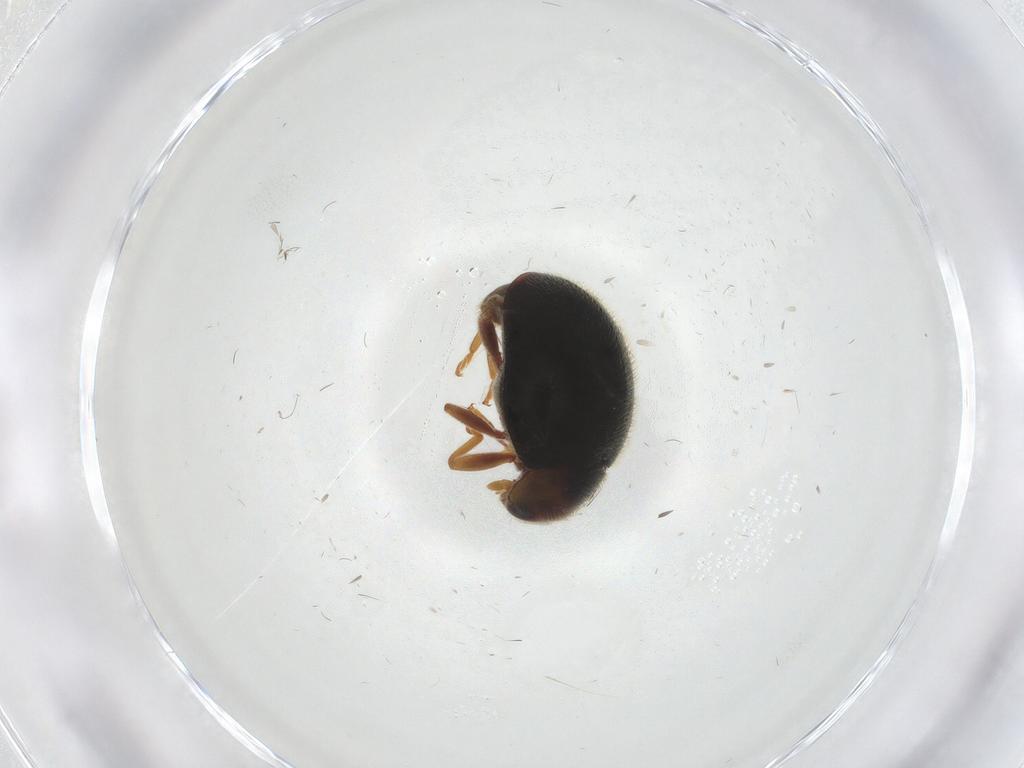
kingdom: Animalia
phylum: Arthropoda
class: Insecta
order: Coleoptera
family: Coccinellidae
